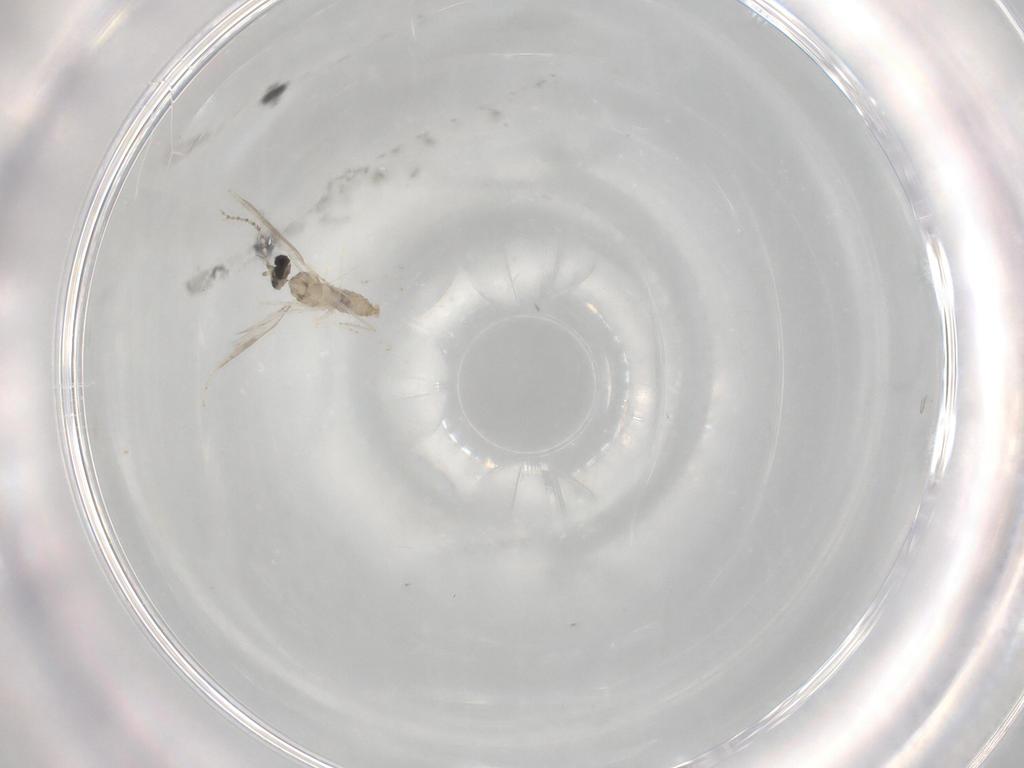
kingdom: Animalia
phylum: Arthropoda
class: Insecta
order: Diptera
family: Cecidomyiidae
